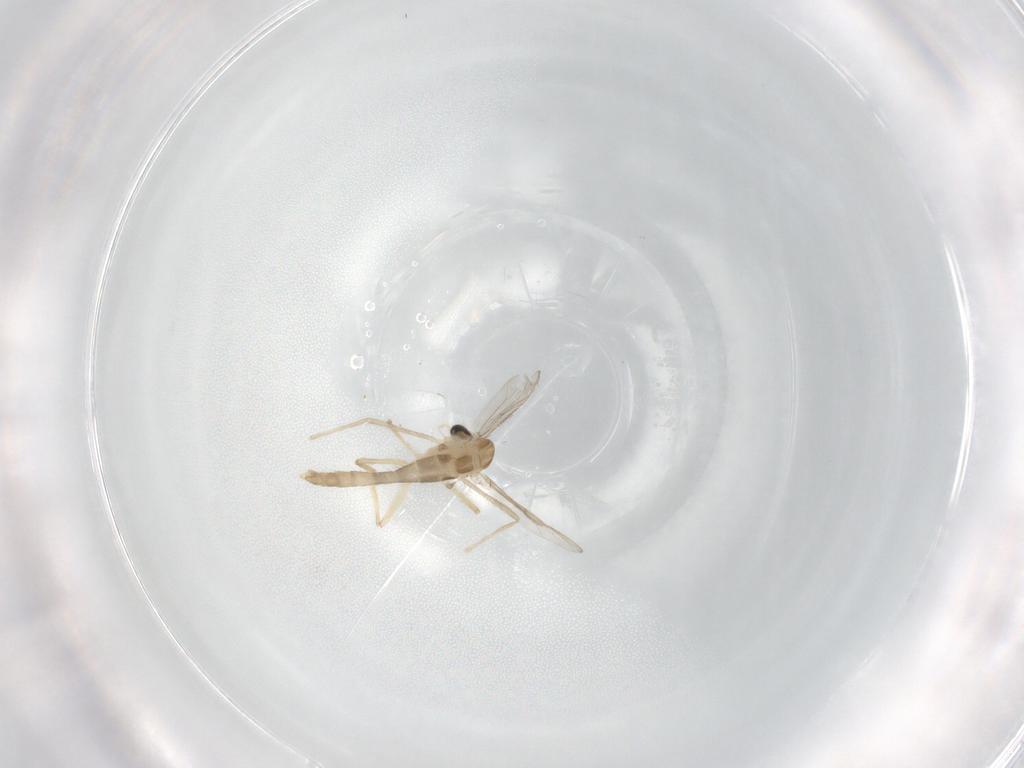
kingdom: Animalia
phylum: Arthropoda
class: Insecta
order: Diptera
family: Chironomidae
